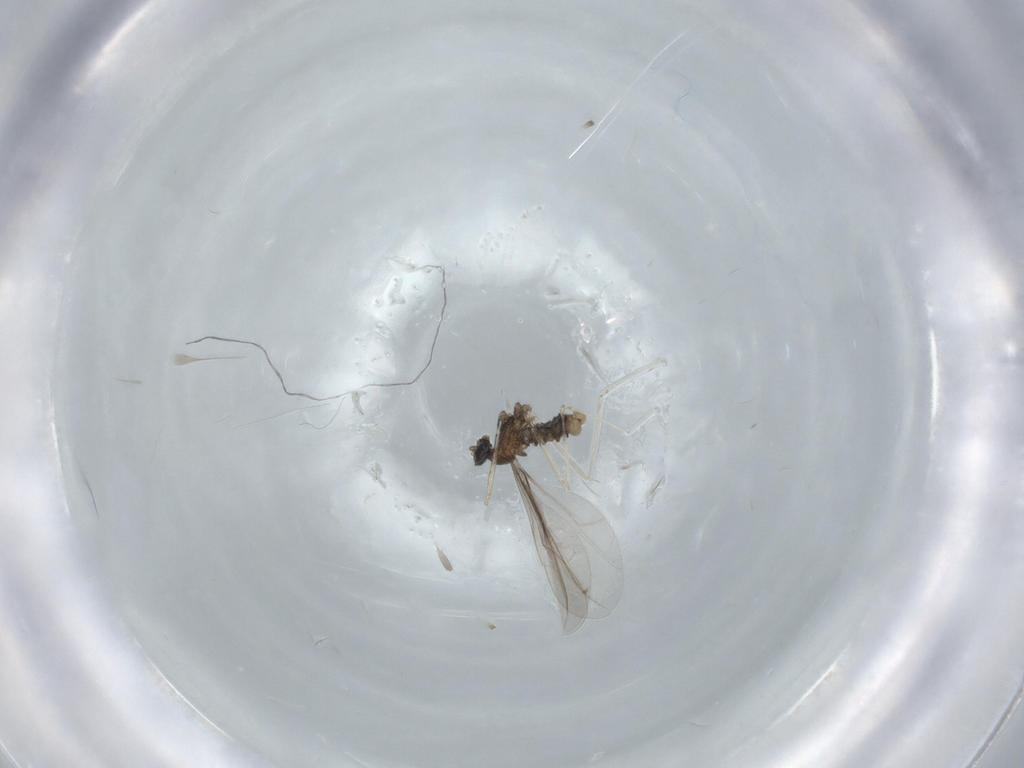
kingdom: Animalia
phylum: Arthropoda
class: Insecta
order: Diptera
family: Cecidomyiidae
